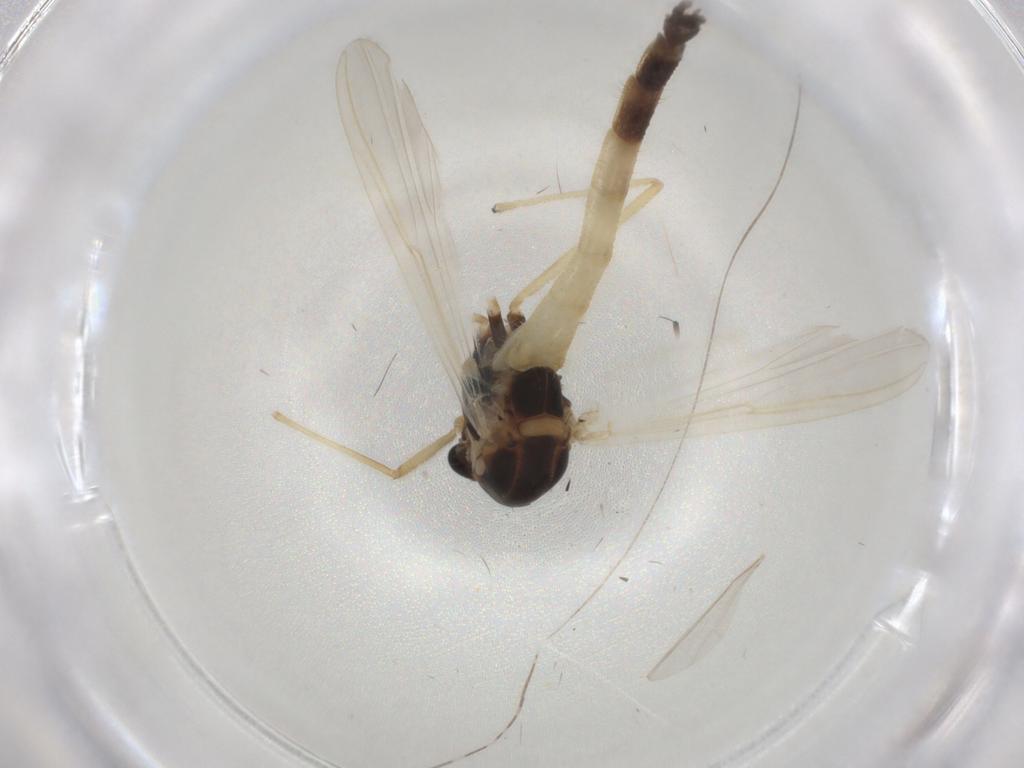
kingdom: Animalia
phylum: Arthropoda
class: Insecta
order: Diptera
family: Chironomidae
